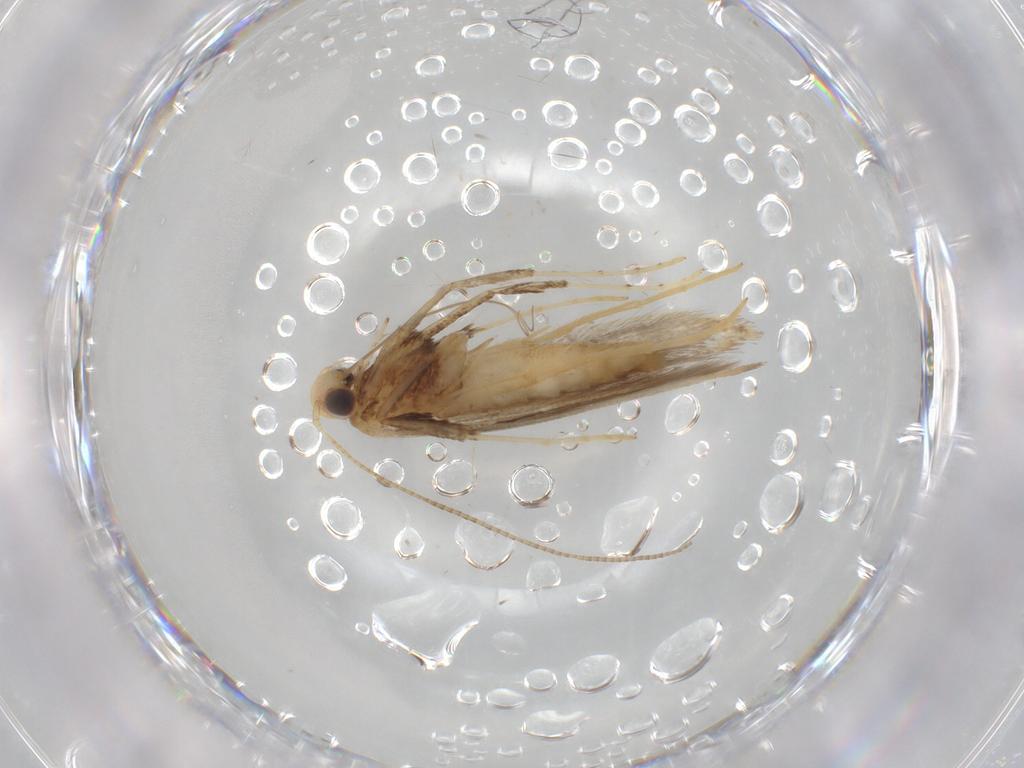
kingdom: Animalia
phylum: Arthropoda
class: Insecta
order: Lepidoptera
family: Gracillariidae
